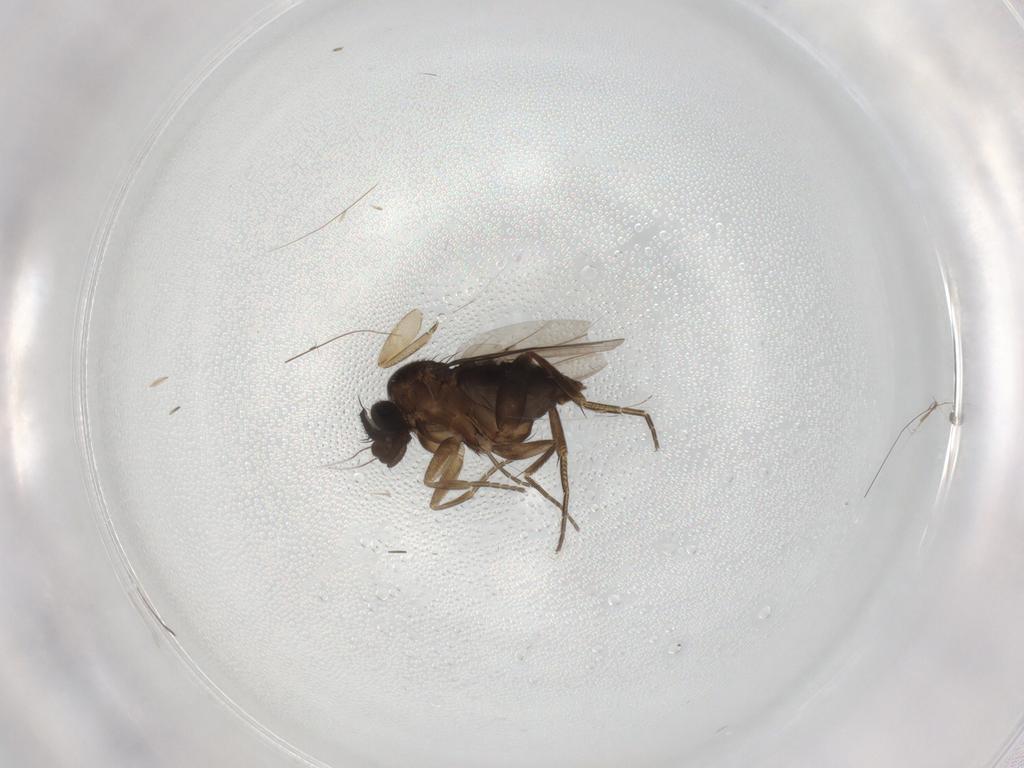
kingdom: Animalia
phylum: Arthropoda
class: Insecta
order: Diptera
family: Phoridae
